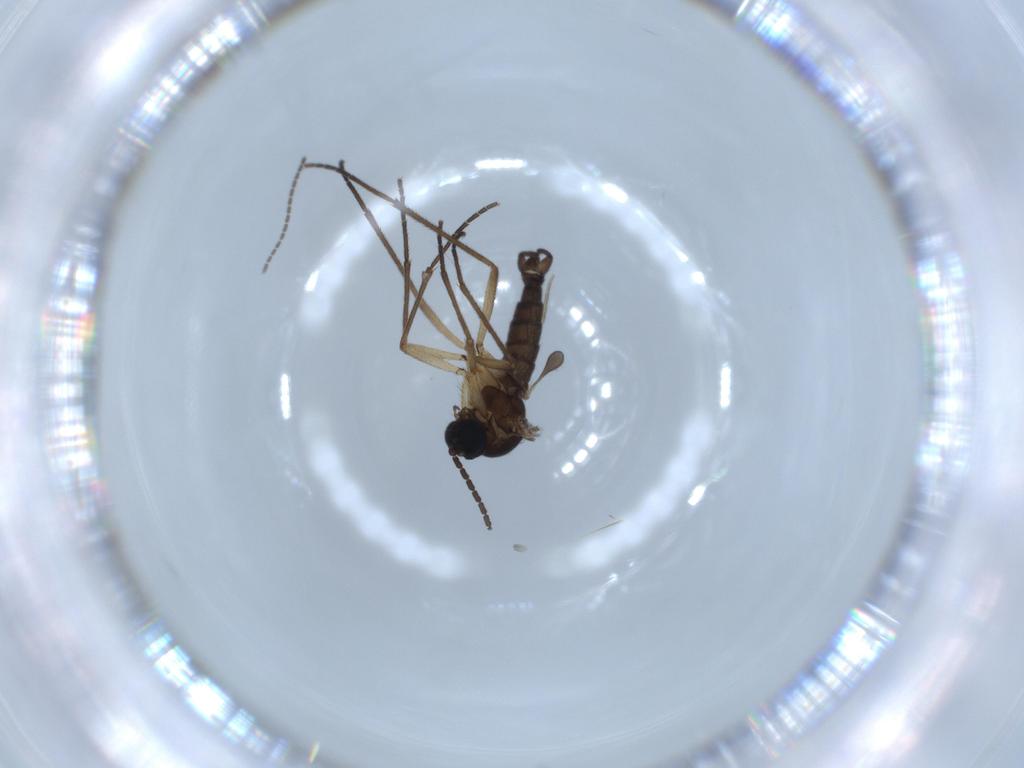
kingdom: Animalia
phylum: Arthropoda
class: Insecta
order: Diptera
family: Sciaridae
